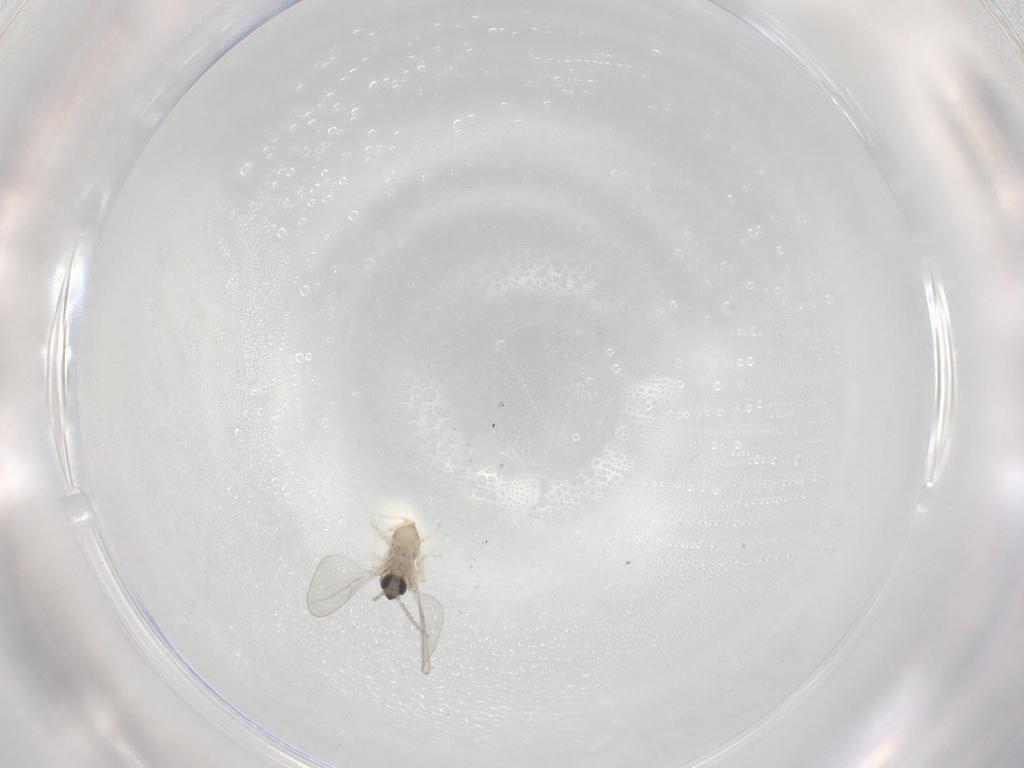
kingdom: Animalia
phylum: Arthropoda
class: Insecta
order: Diptera
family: Cecidomyiidae
